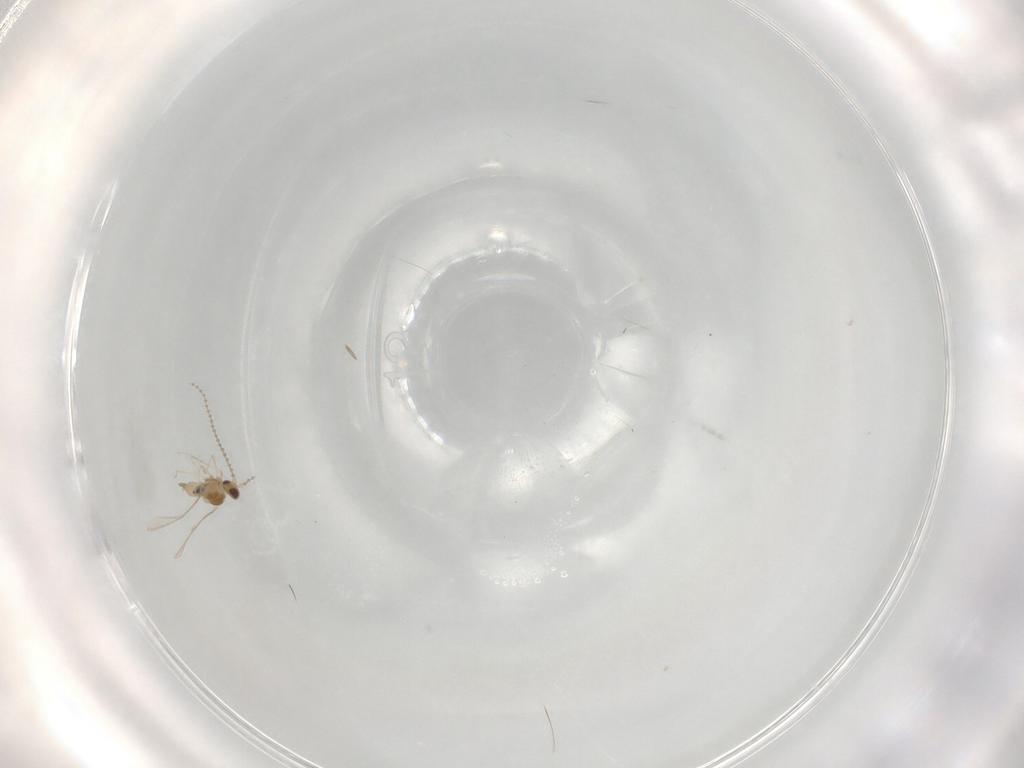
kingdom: Animalia
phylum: Arthropoda
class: Insecta
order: Diptera
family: Cecidomyiidae
